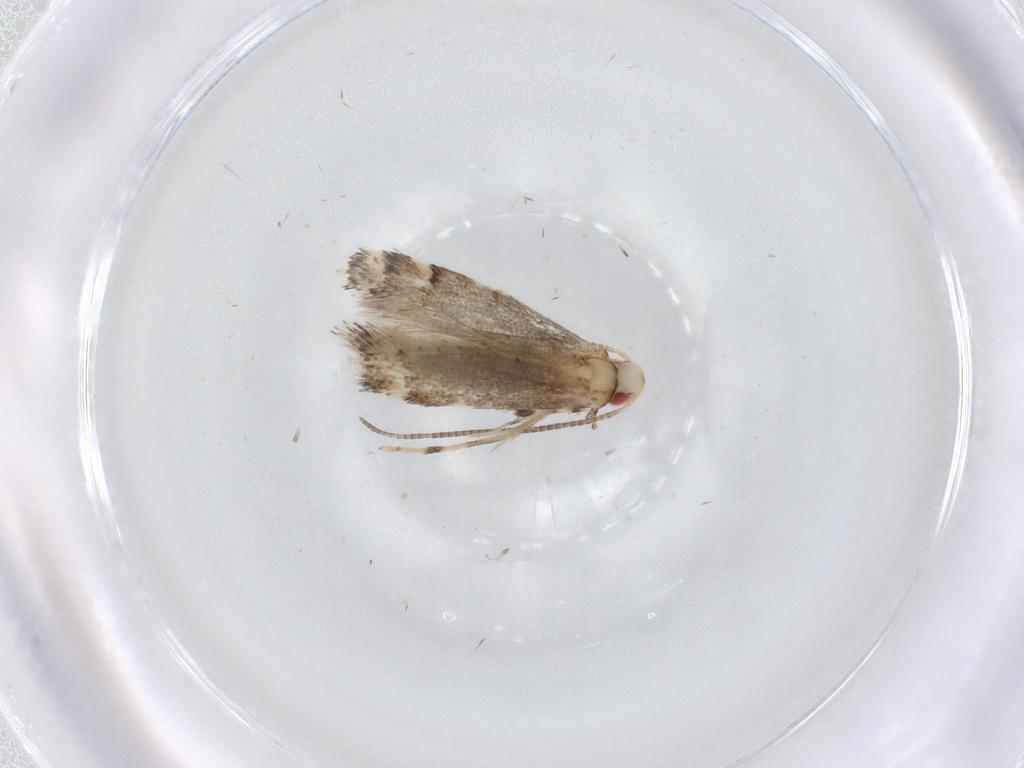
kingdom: Animalia
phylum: Arthropoda
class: Insecta
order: Lepidoptera
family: Gracillariidae
